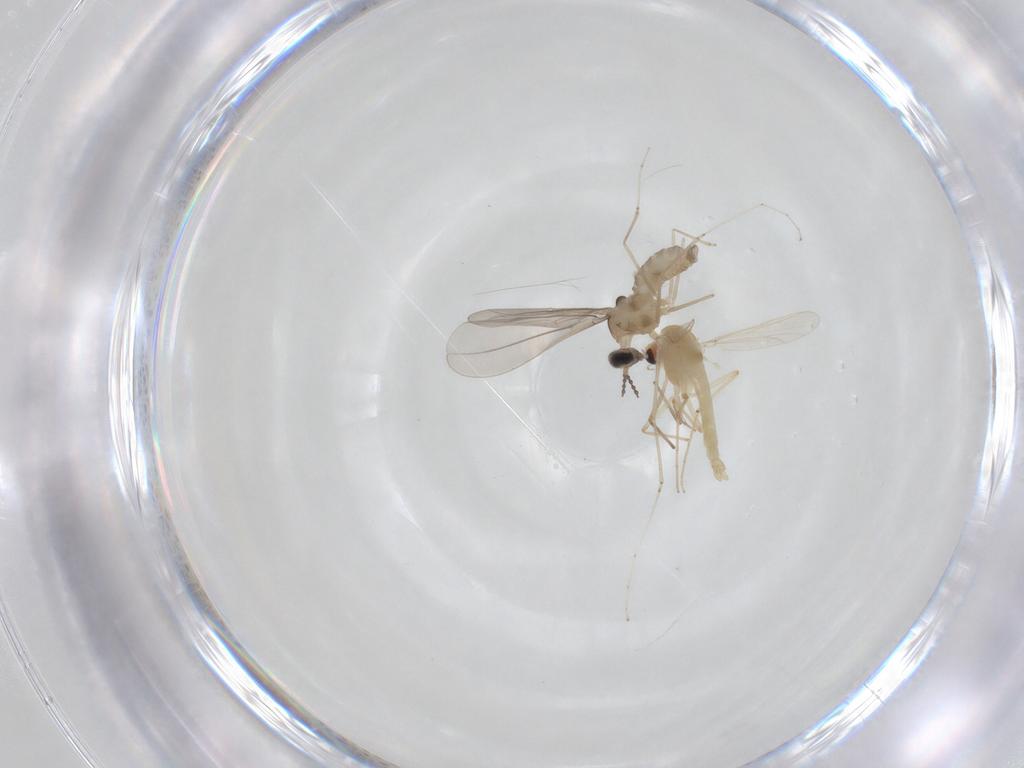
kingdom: Animalia
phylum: Arthropoda
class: Insecta
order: Diptera
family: Chironomidae
